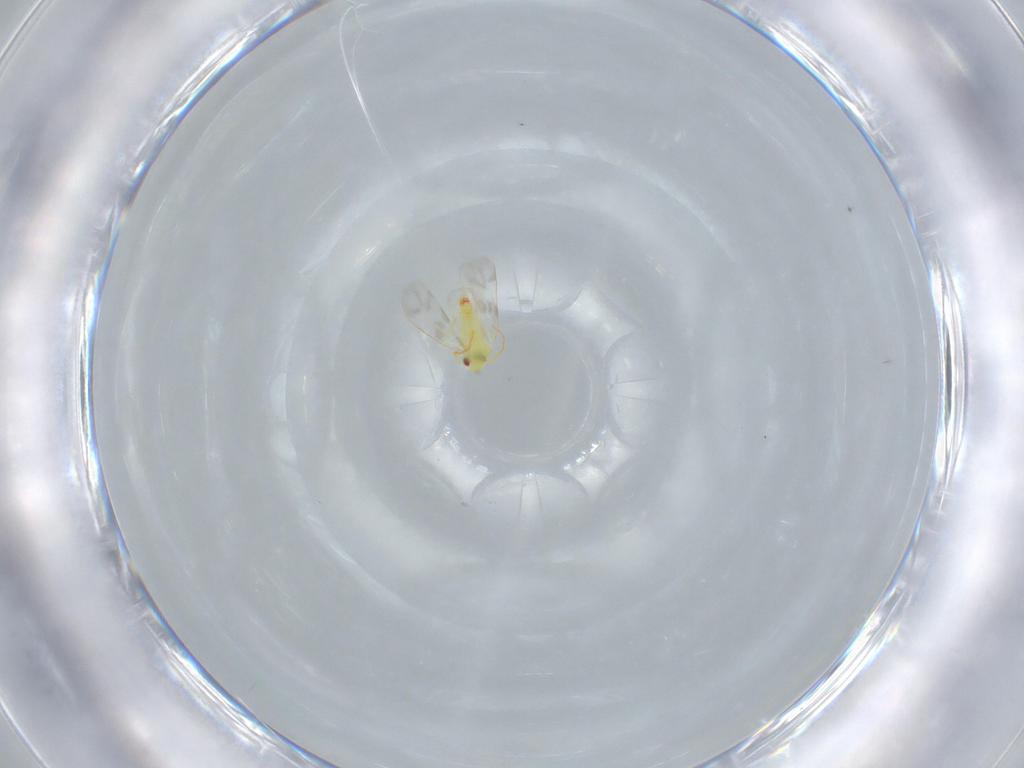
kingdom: Animalia
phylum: Arthropoda
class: Insecta
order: Hemiptera
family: Aleyrodidae
